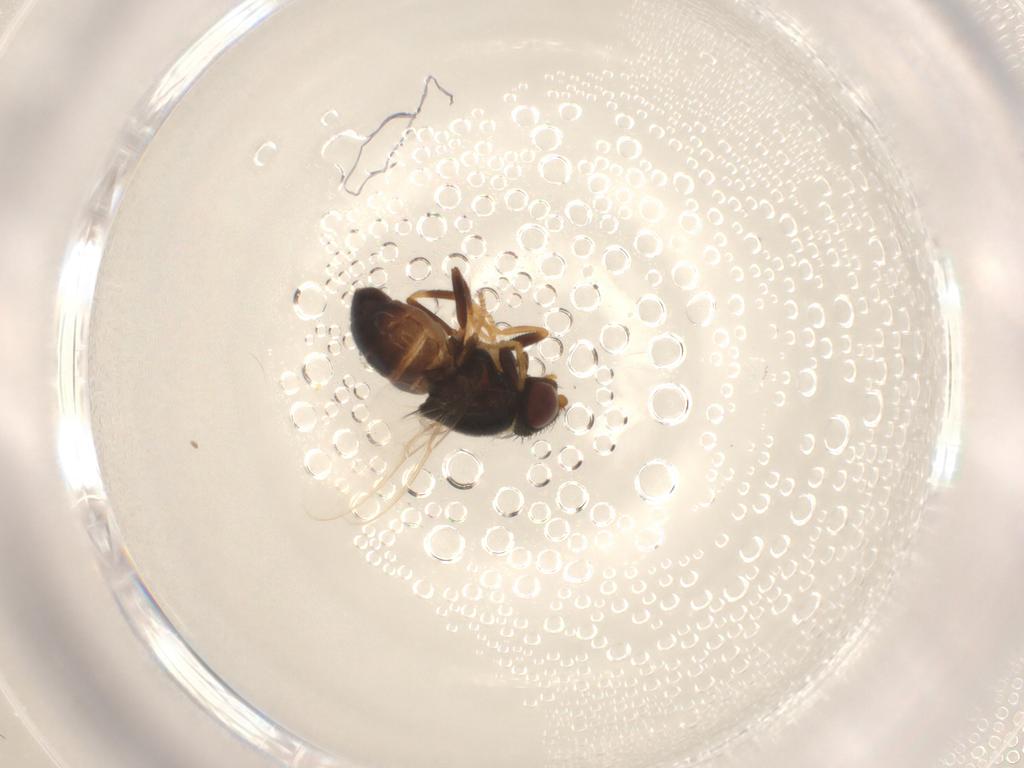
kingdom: Animalia
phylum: Arthropoda
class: Insecta
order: Diptera
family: Chloropidae
